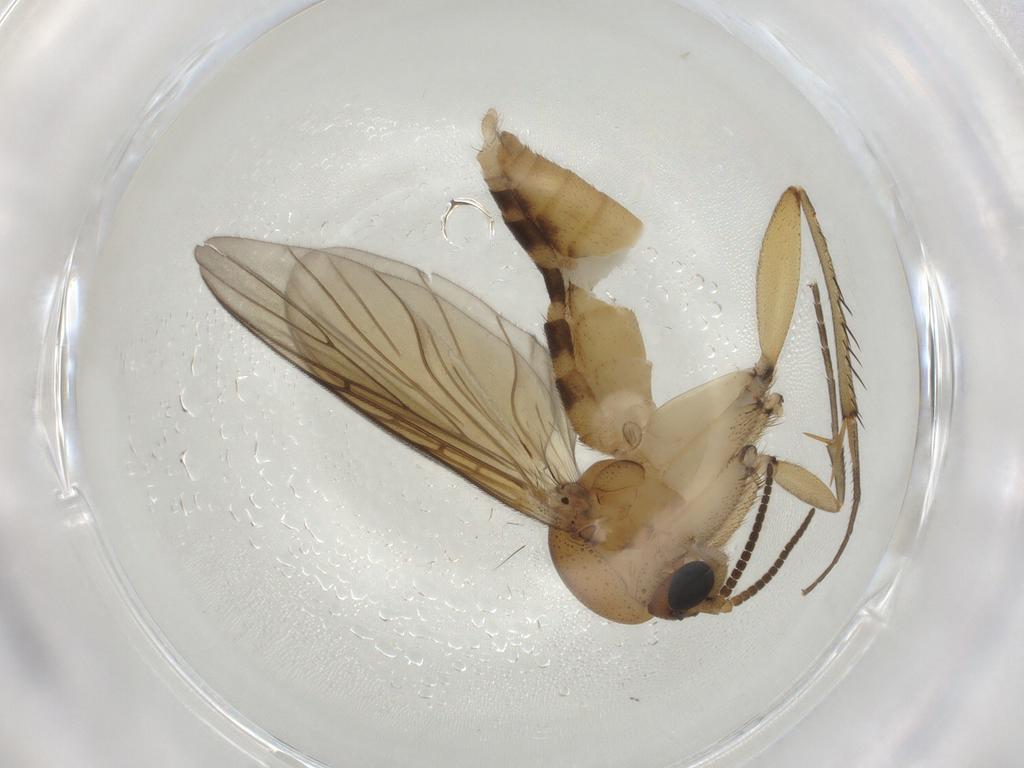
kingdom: Animalia
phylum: Arthropoda
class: Insecta
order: Diptera
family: Mycetophilidae
